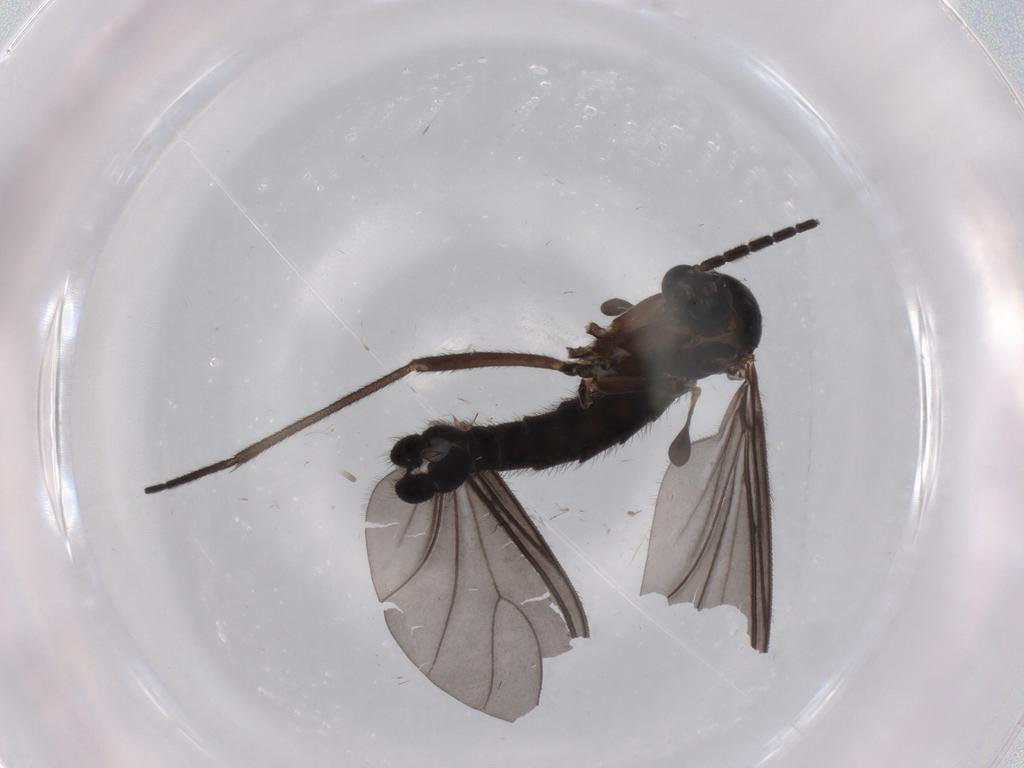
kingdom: Animalia
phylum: Arthropoda
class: Insecta
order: Diptera
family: Sciaridae
